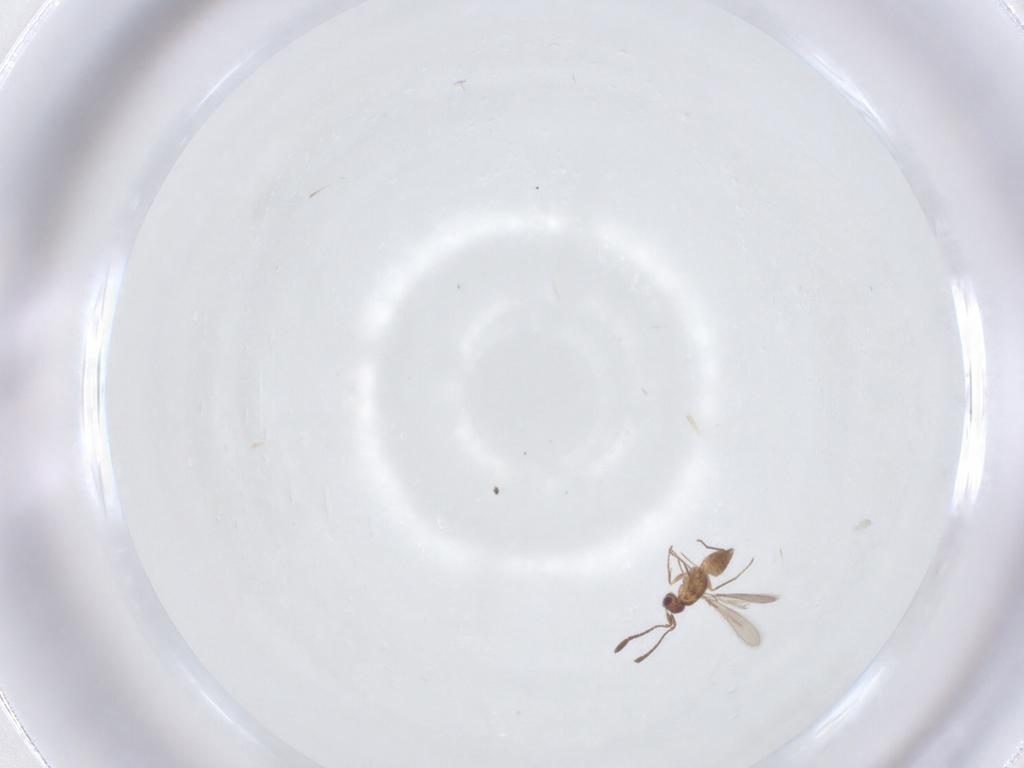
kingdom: Animalia
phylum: Arthropoda
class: Insecta
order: Hymenoptera
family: Mymaridae
